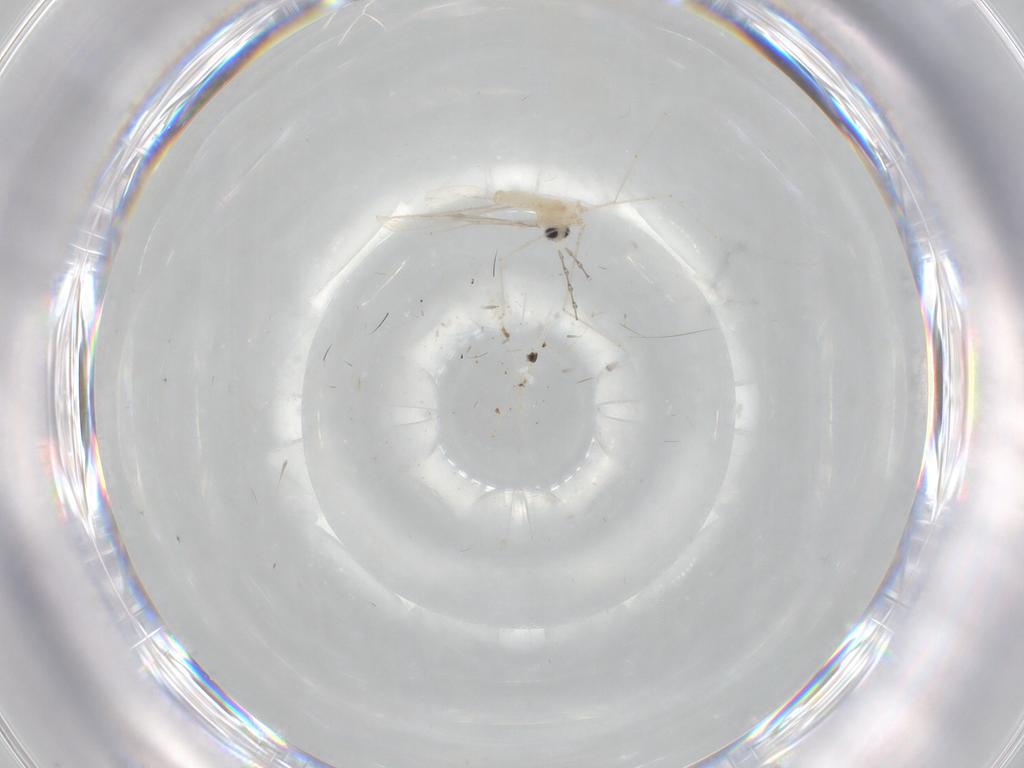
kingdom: Animalia
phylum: Arthropoda
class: Insecta
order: Diptera
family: Cecidomyiidae
